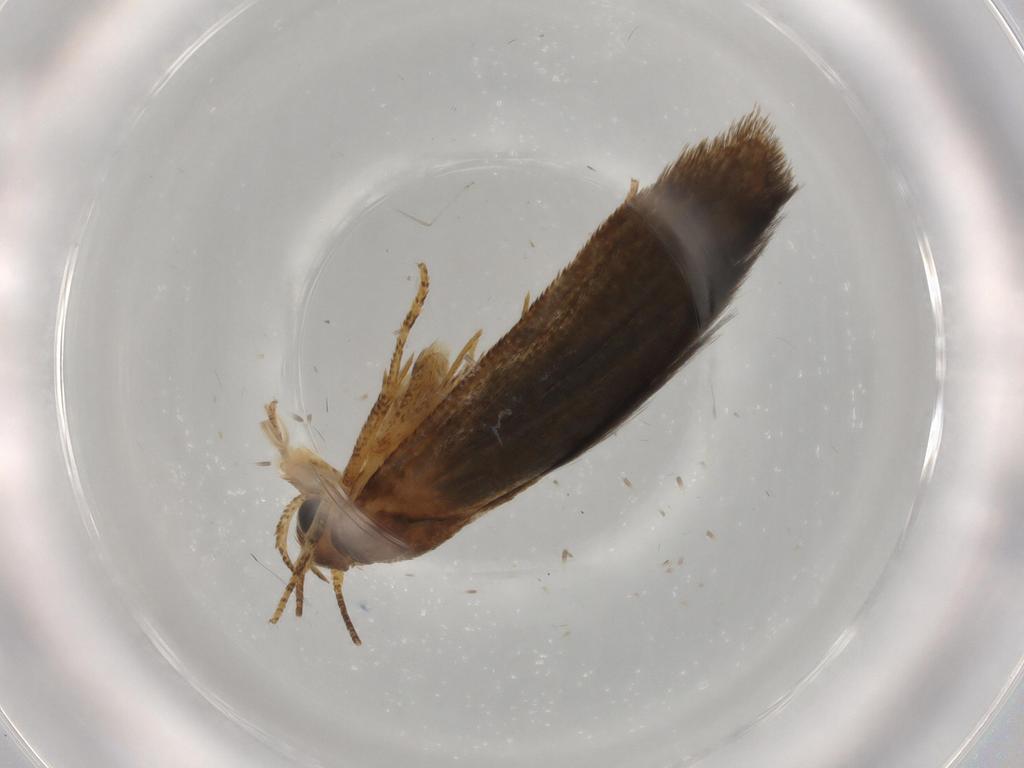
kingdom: Animalia
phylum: Arthropoda
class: Insecta
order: Lepidoptera
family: Blastobasidae
